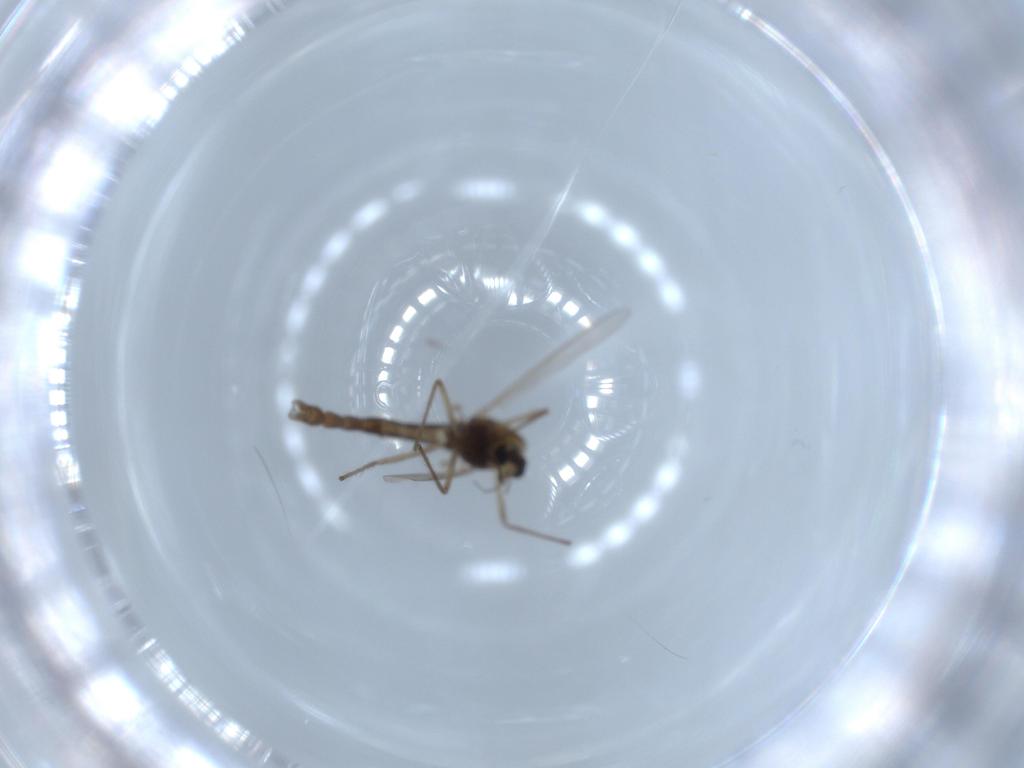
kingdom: Animalia
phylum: Arthropoda
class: Insecta
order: Diptera
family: Chironomidae
